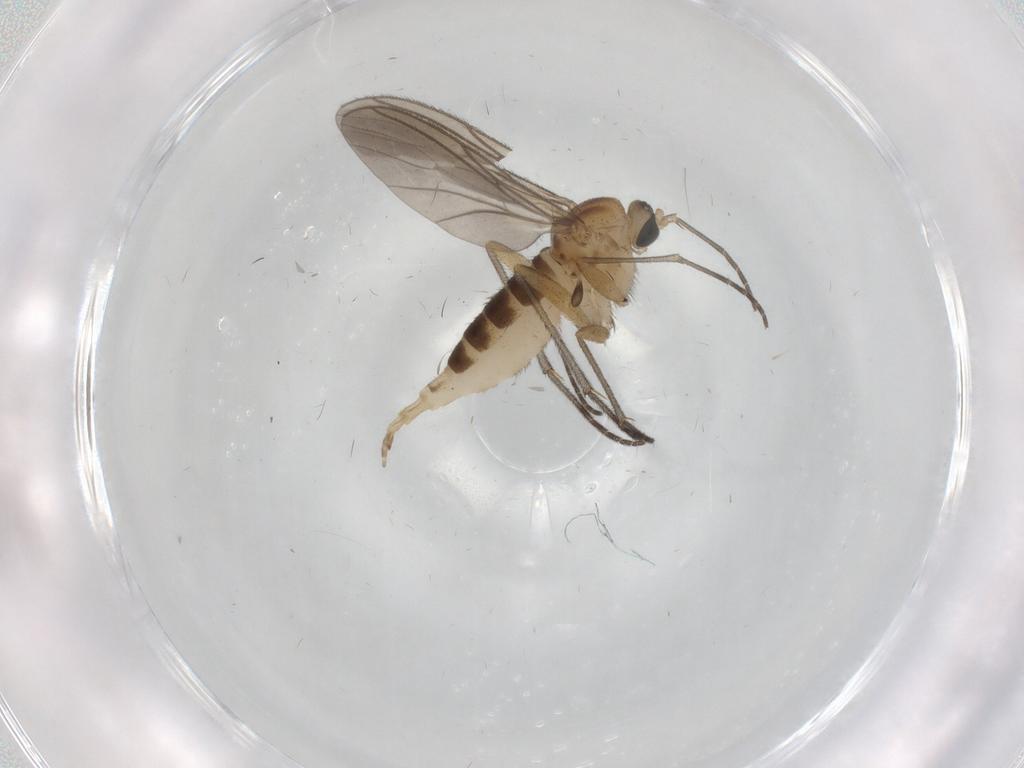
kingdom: Animalia
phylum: Arthropoda
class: Insecta
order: Diptera
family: Sciaridae
